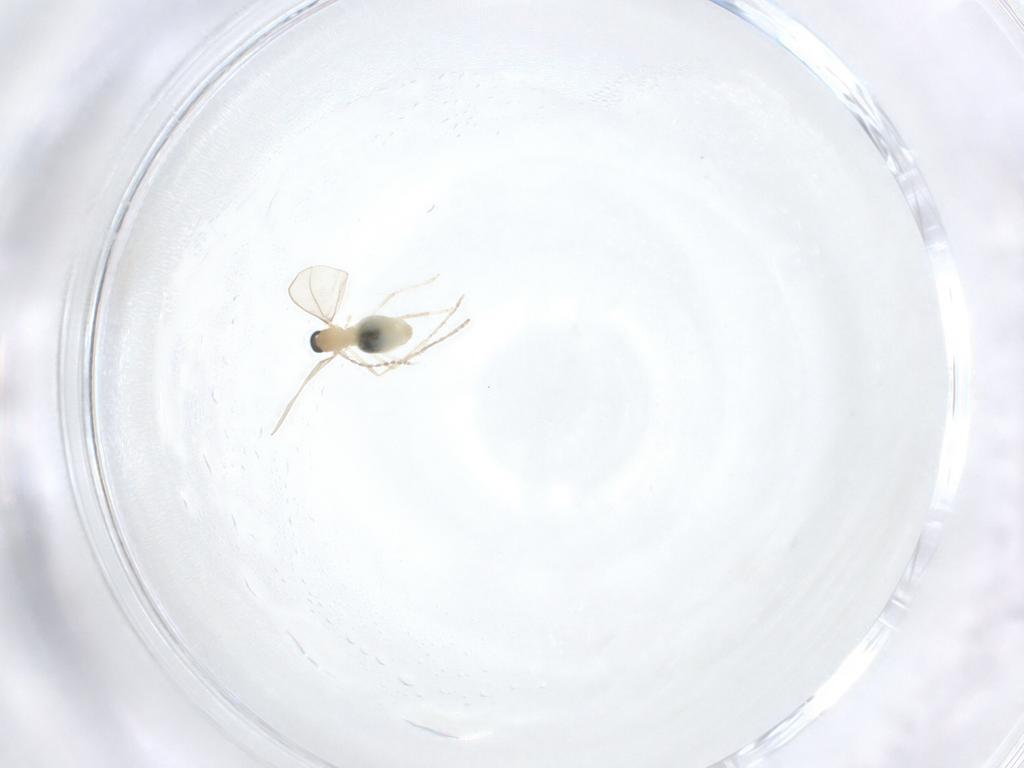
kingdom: Animalia
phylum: Arthropoda
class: Insecta
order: Diptera
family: Cecidomyiidae
